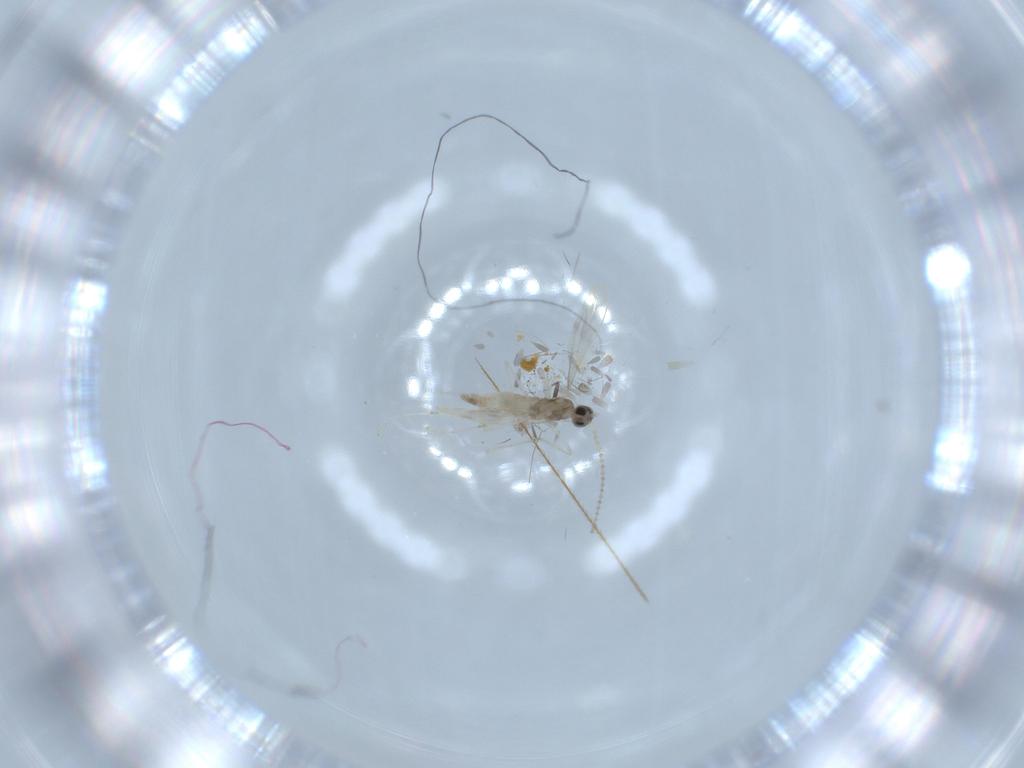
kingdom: Animalia
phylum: Arthropoda
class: Insecta
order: Diptera
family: Cecidomyiidae
